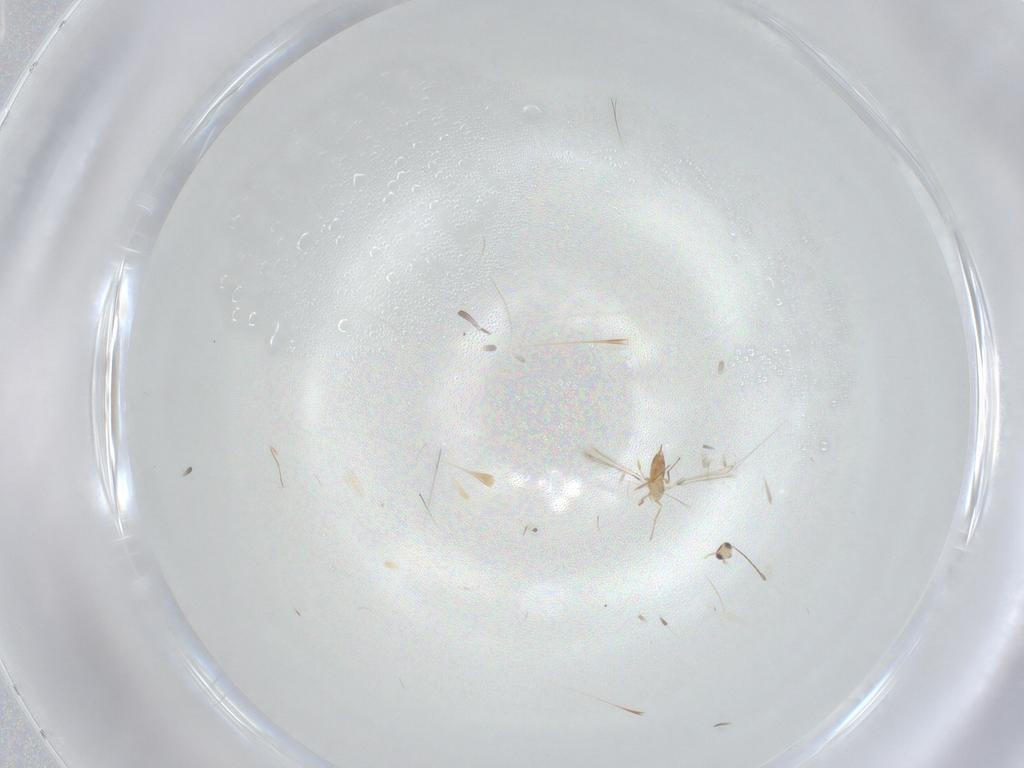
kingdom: Animalia
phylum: Arthropoda
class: Insecta
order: Hymenoptera
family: Mymaridae
